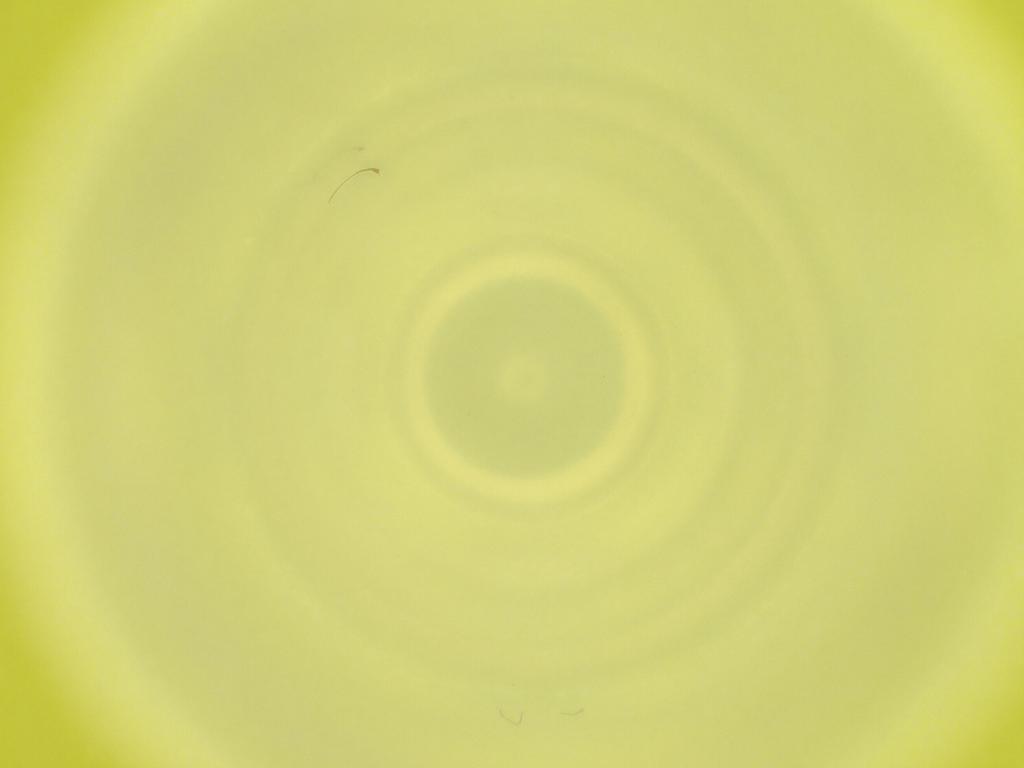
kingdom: Animalia
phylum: Arthropoda
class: Insecta
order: Diptera
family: Cecidomyiidae
